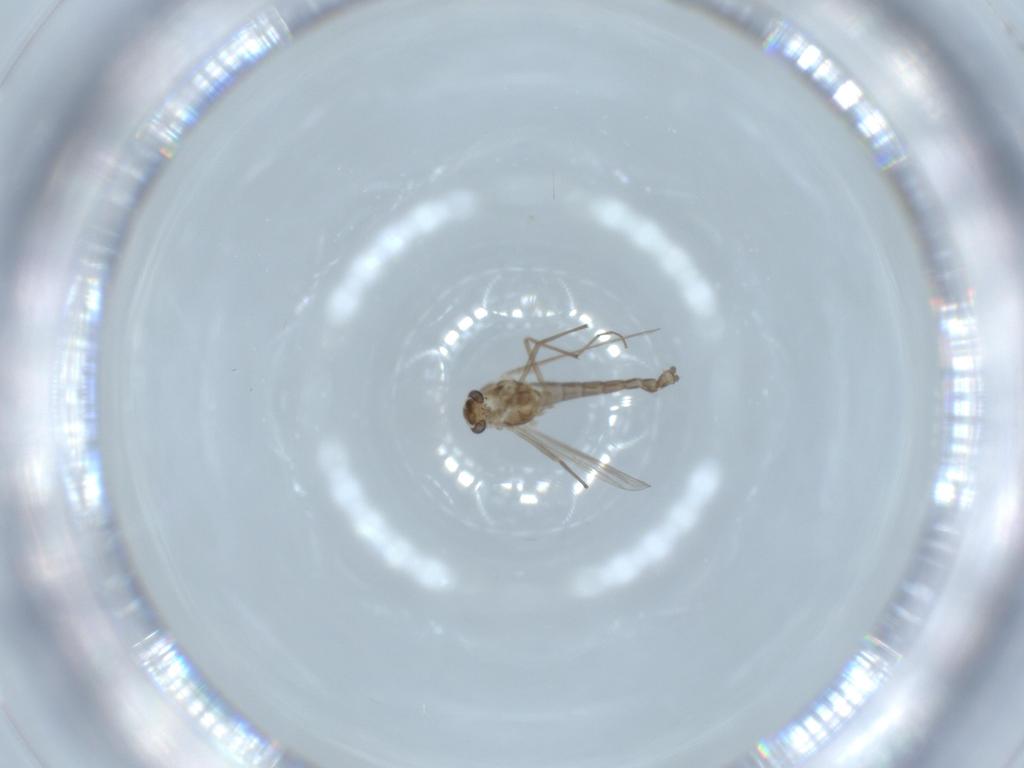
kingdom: Animalia
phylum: Arthropoda
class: Insecta
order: Diptera
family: Chironomidae
